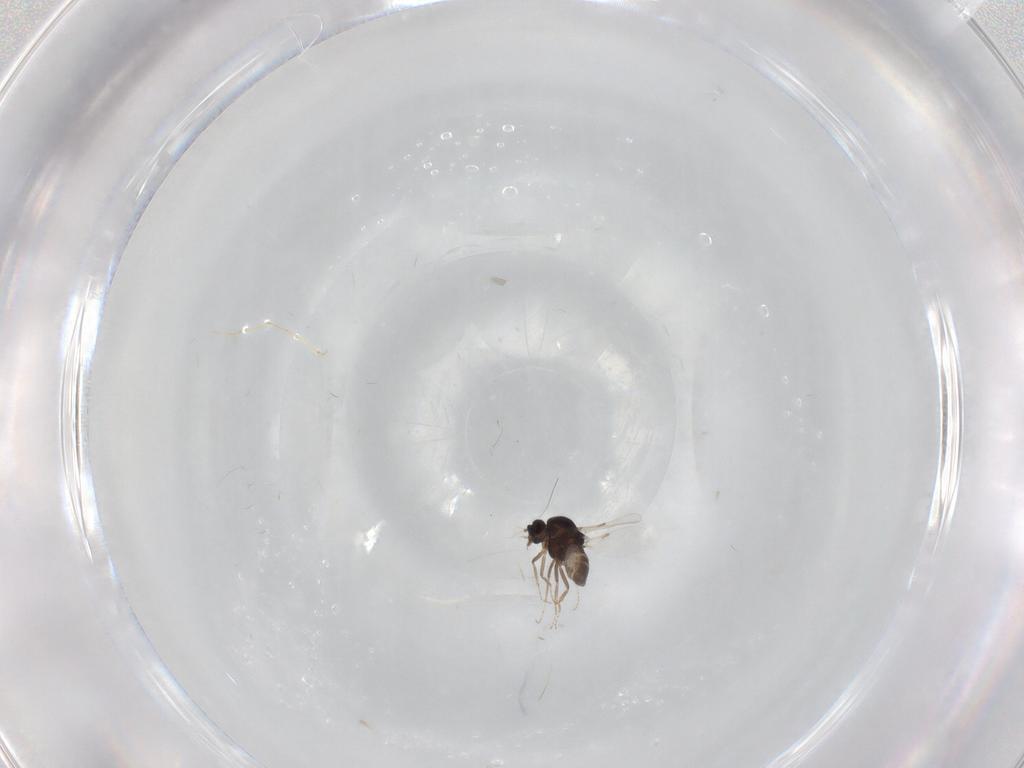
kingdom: Animalia
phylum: Arthropoda
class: Insecta
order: Diptera
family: Ceratopogonidae
